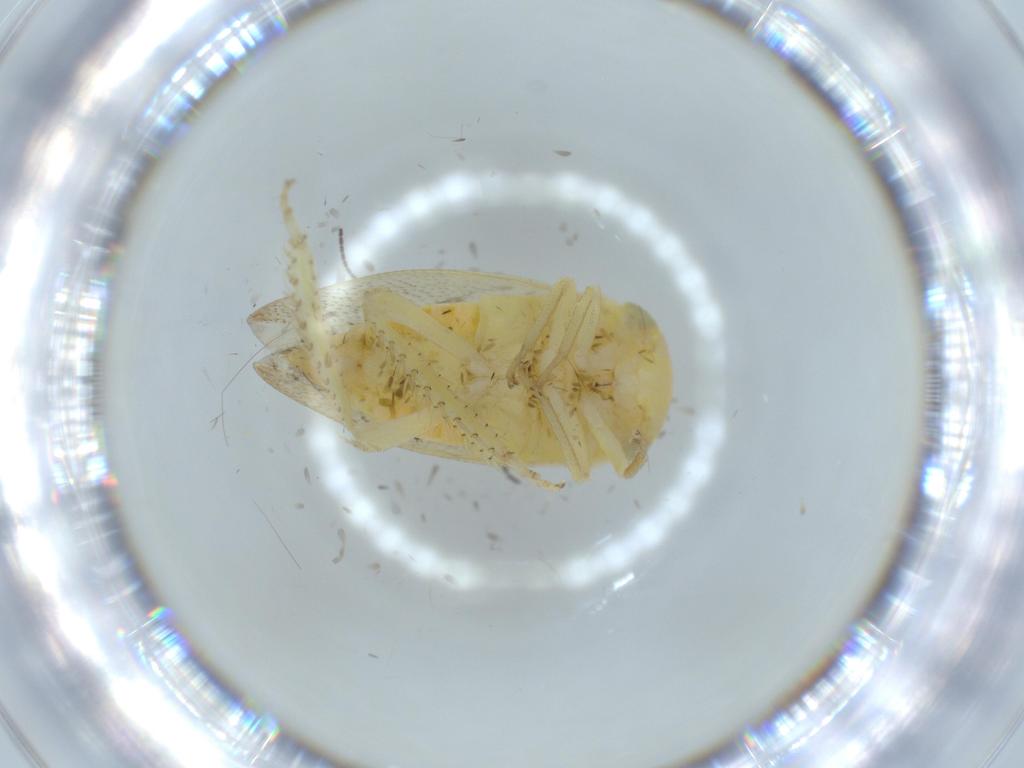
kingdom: Animalia
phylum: Arthropoda
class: Insecta
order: Hemiptera
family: Cicadellidae
